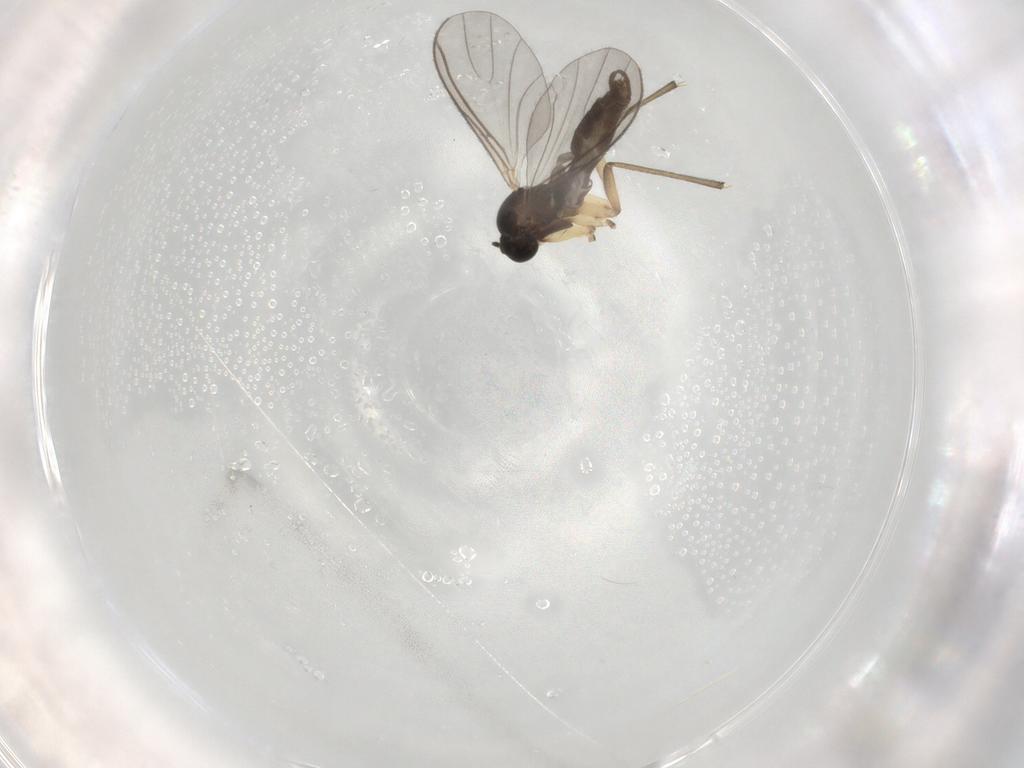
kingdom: Animalia
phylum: Arthropoda
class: Insecta
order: Diptera
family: Sciaridae
